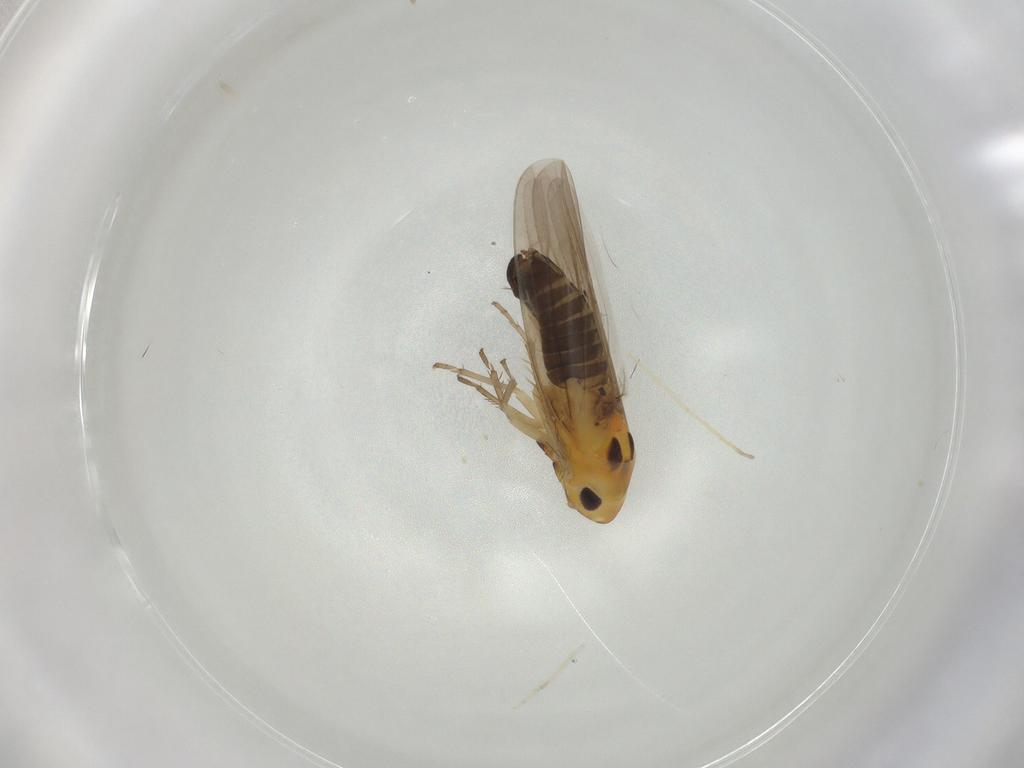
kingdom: Animalia
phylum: Arthropoda
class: Insecta
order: Hemiptera
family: Cicadellidae
